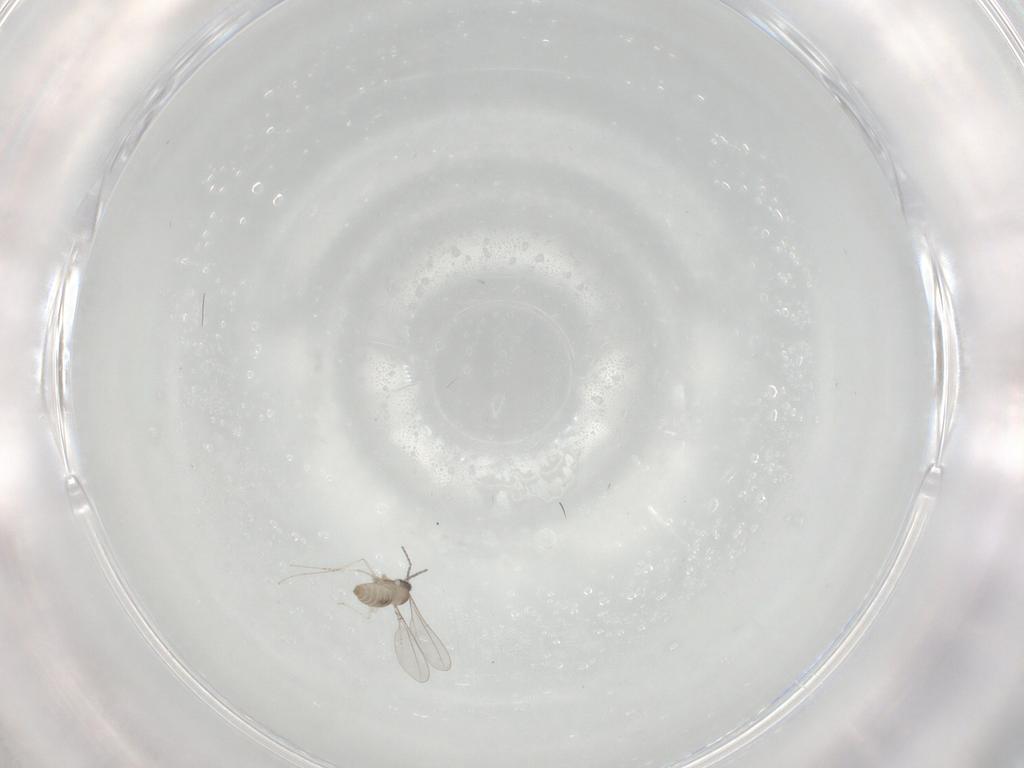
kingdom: Animalia
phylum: Arthropoda
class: Insecta
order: Diptera
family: Cecidomyiidae
